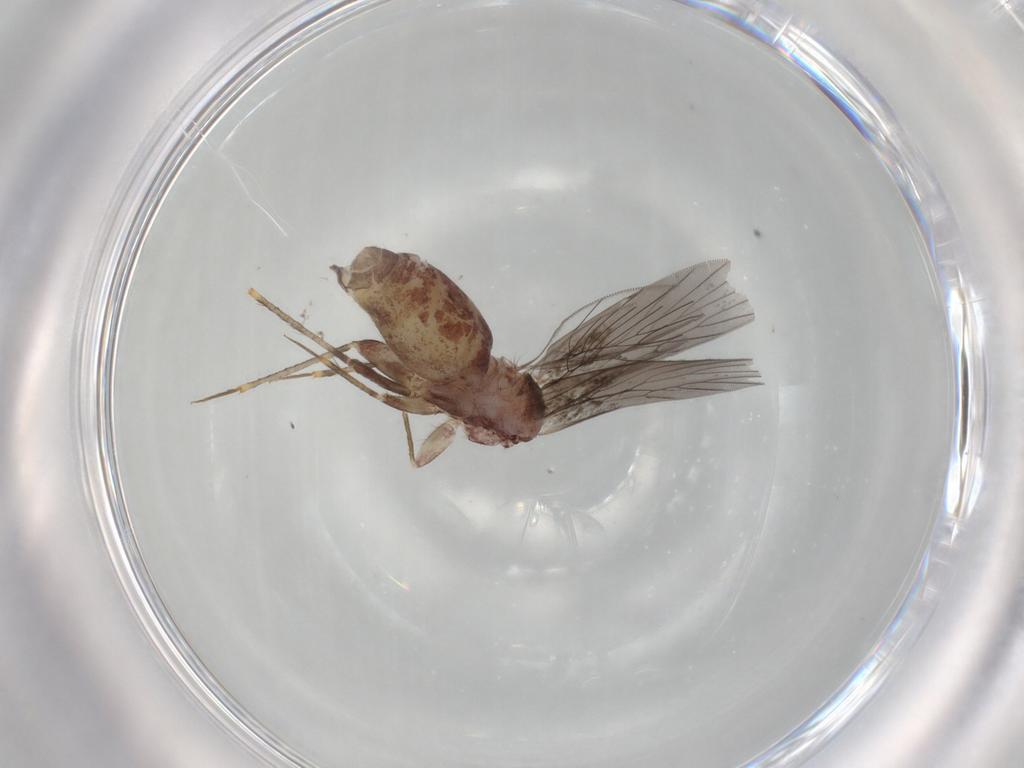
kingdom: Animalia
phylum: Arthropoda
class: Insecta
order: Psocodea
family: Lepidopsocidae
